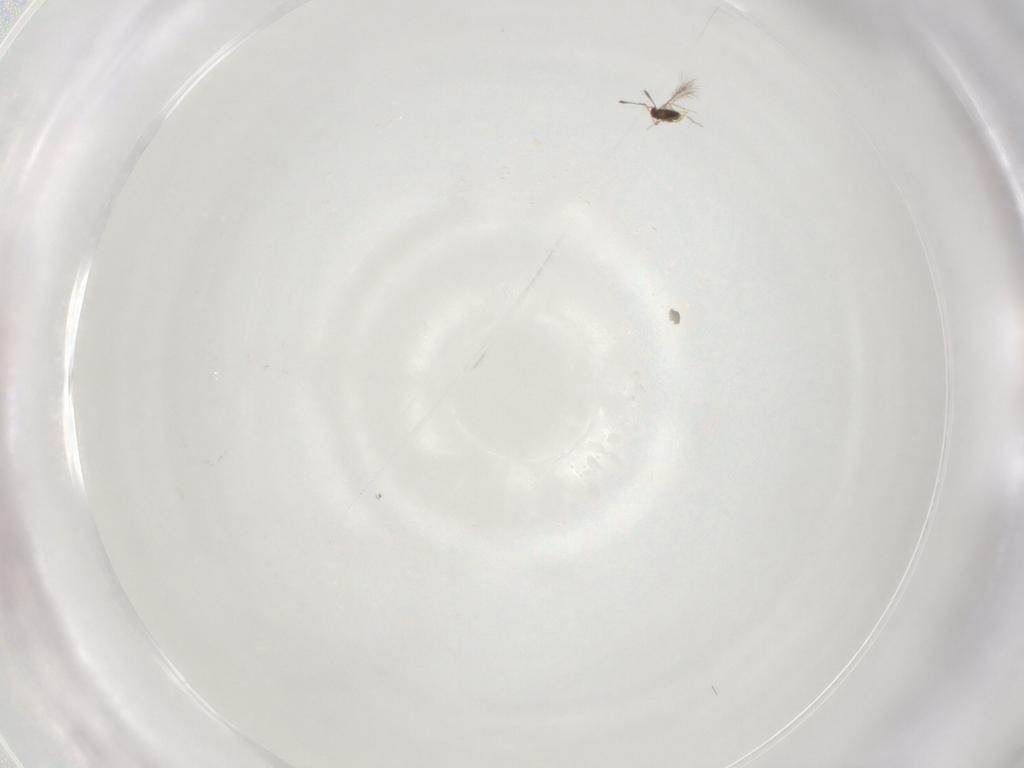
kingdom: Animalia
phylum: Arthropoda
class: Insecta
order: Hymenoptera
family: Mymaridae
